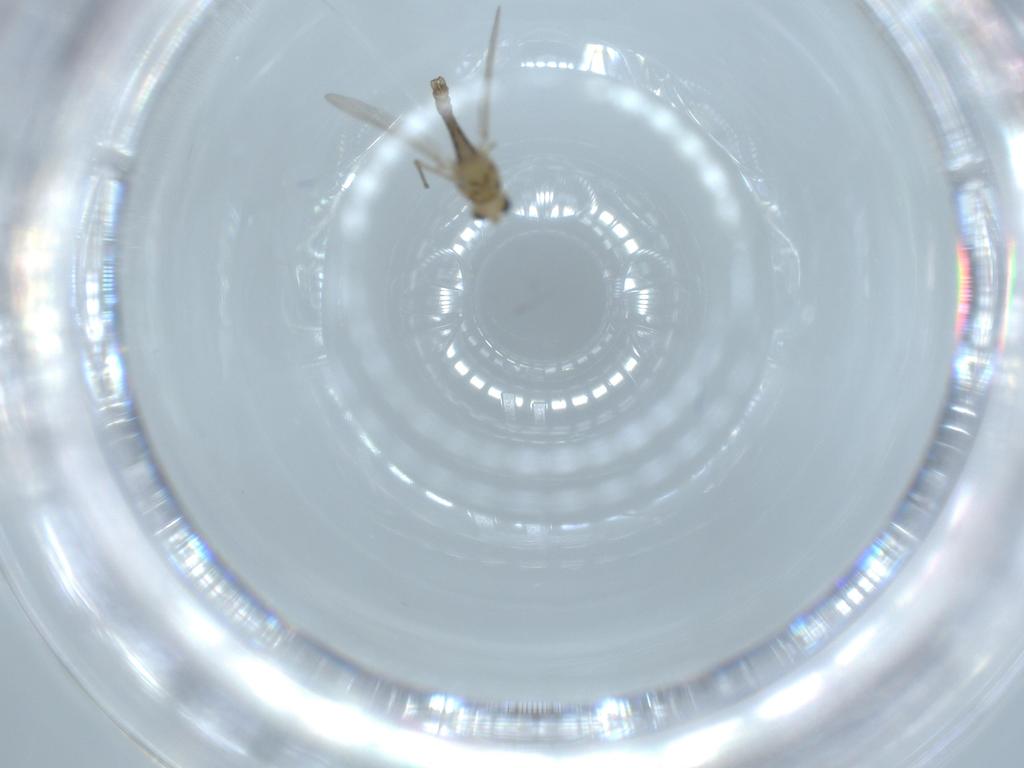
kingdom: Animalia
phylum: Arthropoda
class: Insecta
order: Diptera
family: Chironomidae
